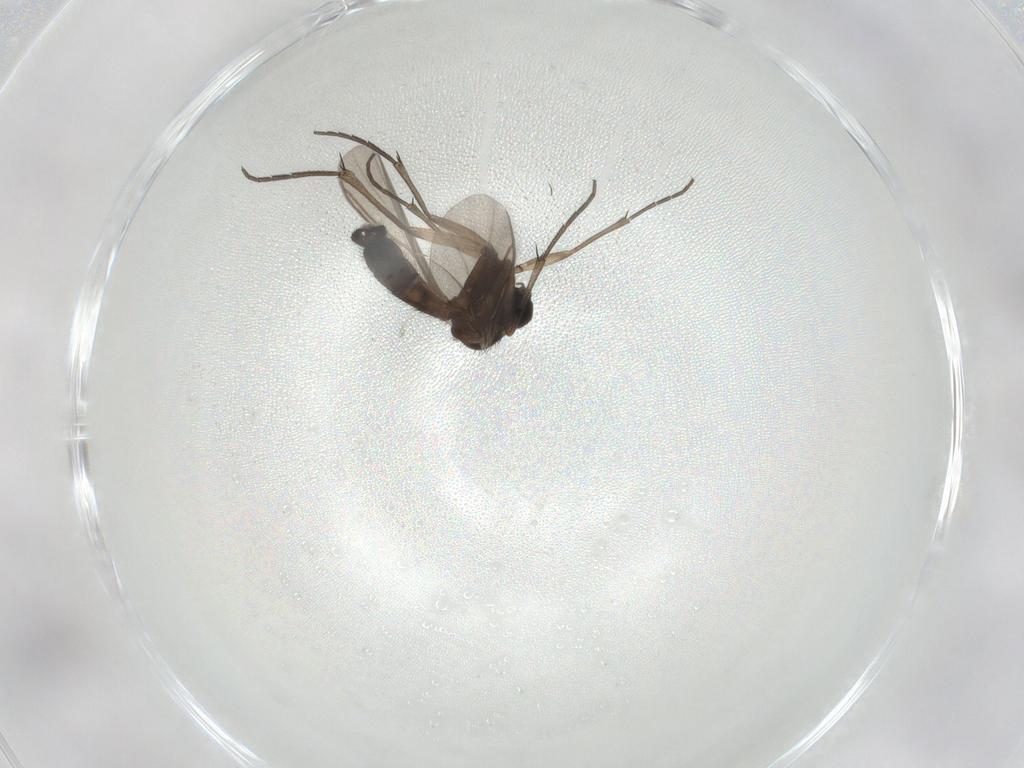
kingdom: Animalia
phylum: Arthropoda
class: Insecta
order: Diptera
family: Keroplatidae
